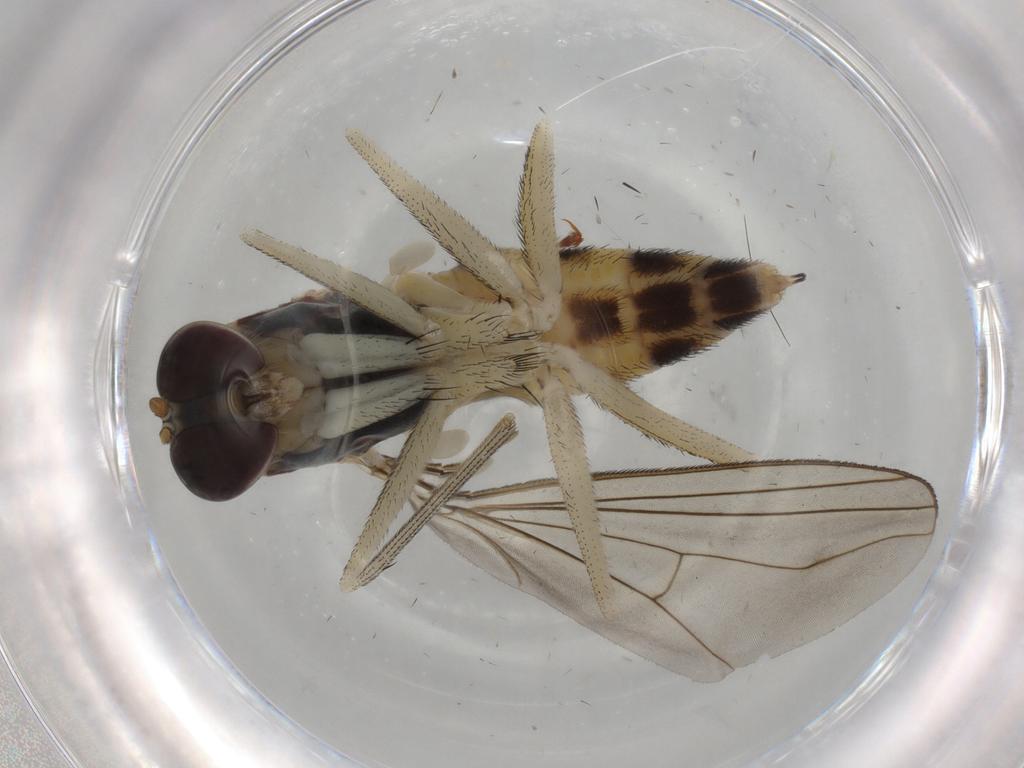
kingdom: Animalia
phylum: Arthropoda
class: Insecta
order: Diptera
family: Dolichopodidae
